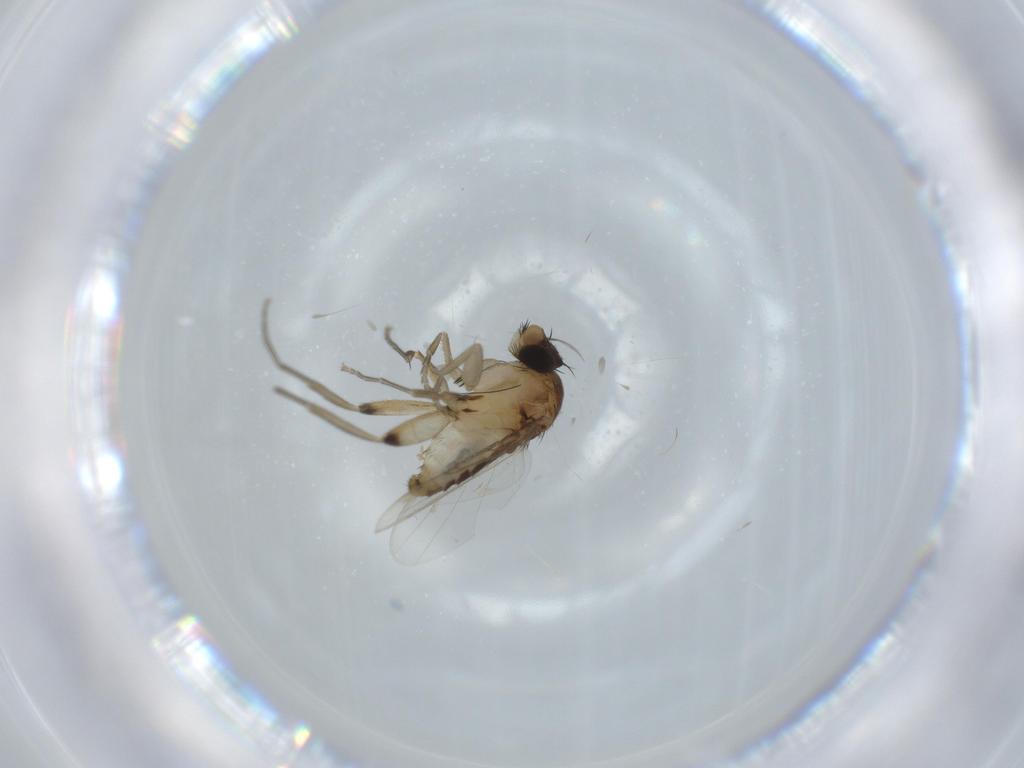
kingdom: Animalia
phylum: Arthropoda
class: Insecta
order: Diptera
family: Phoridae
